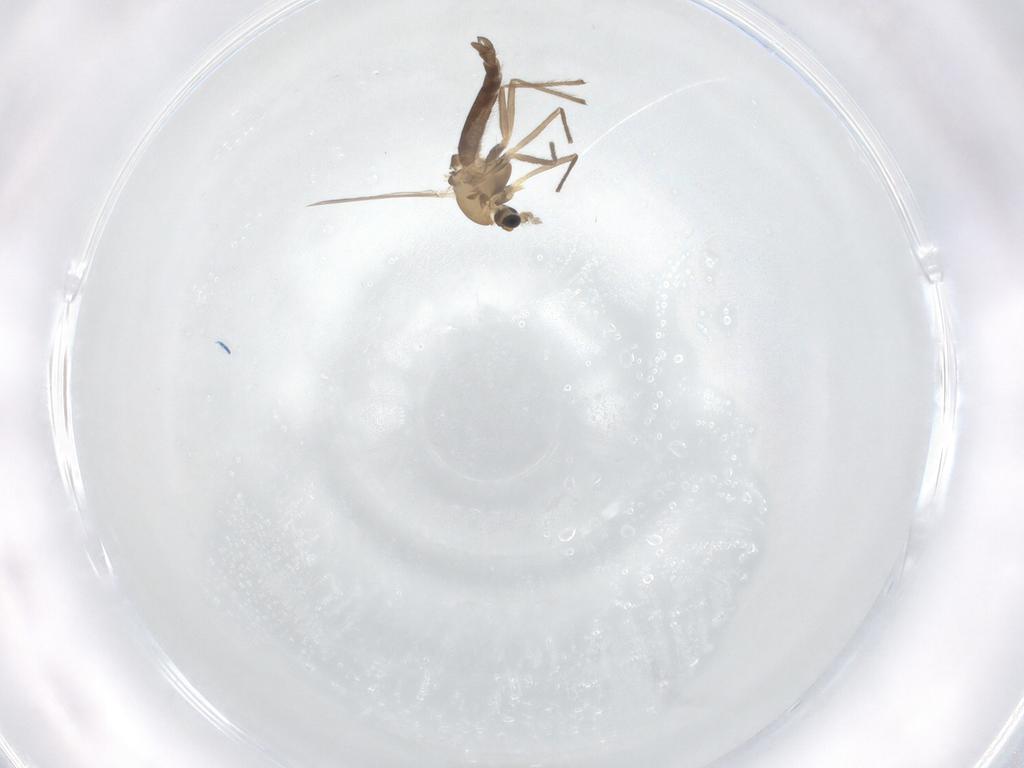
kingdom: Animalia
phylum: Arthropoda
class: Insecta
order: Diptera
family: Chironomidae
